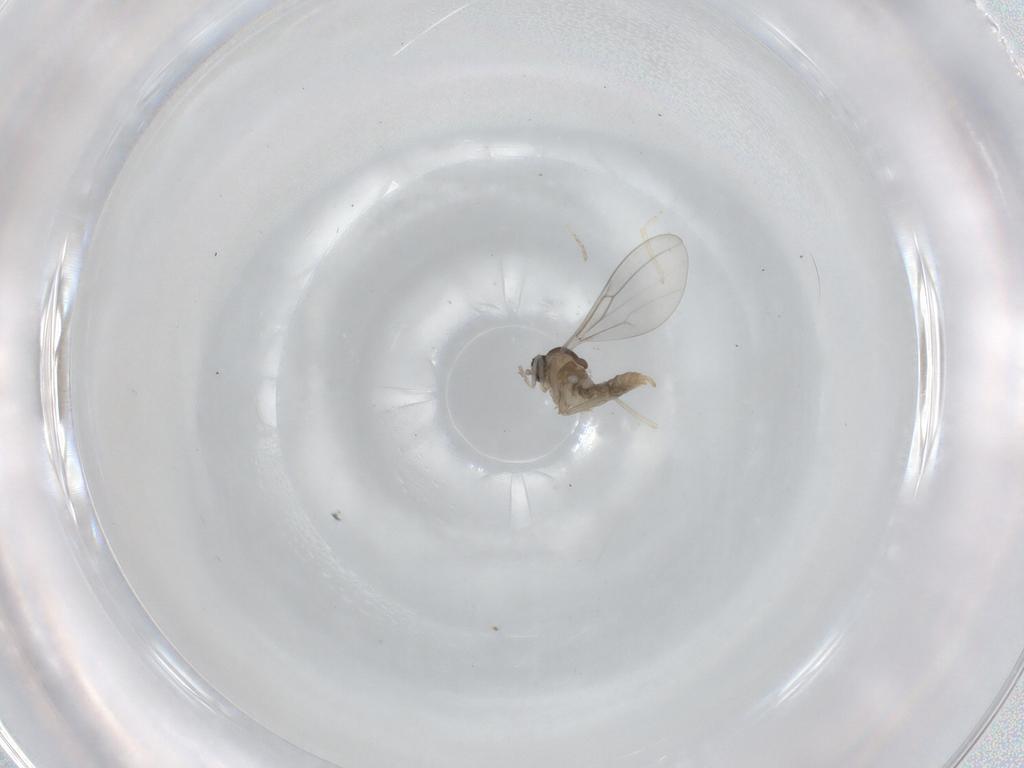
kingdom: Animalia
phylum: Arthropoda
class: Insecta
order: Diptera
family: Cecidomyiidae
